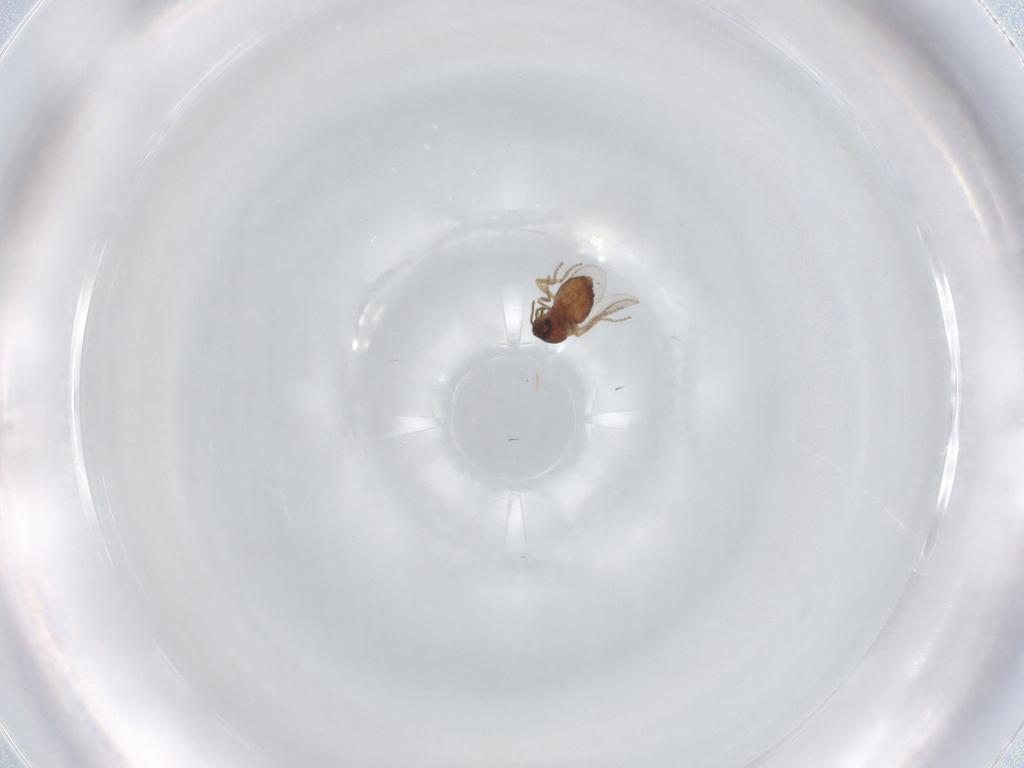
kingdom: Animalia
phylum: Arthropoda
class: Insecta
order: Diptera
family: Ceratopogonidae
